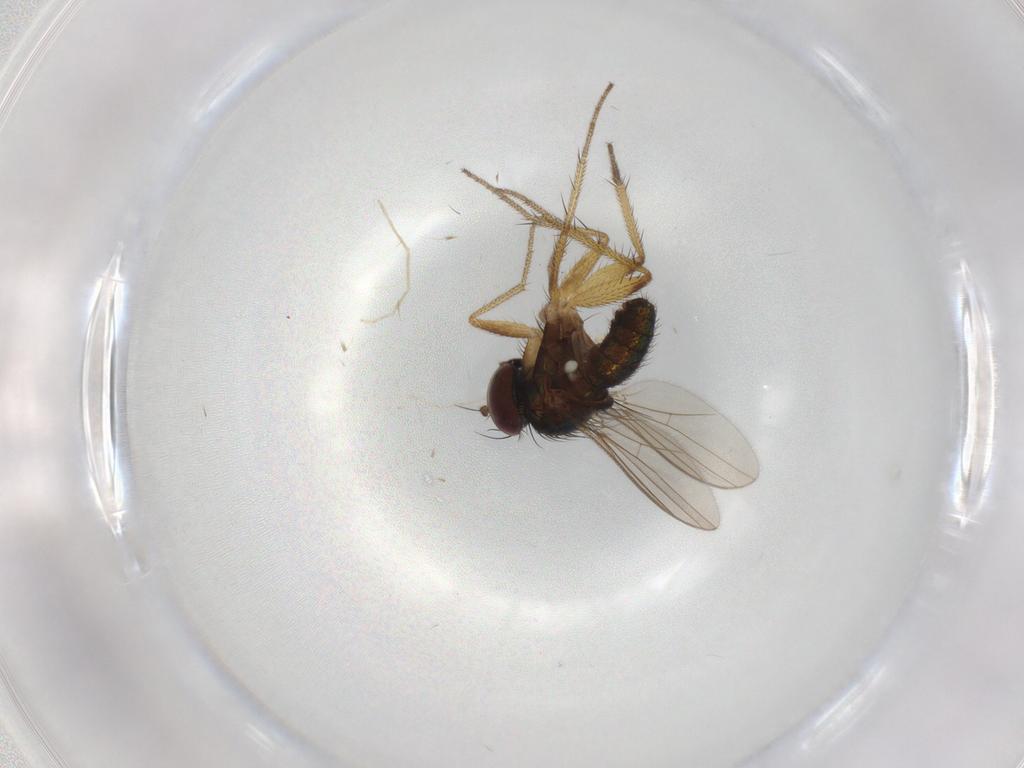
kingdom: Animalia
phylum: Arthropoda
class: Insecta
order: Diptera
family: Chironomidae
